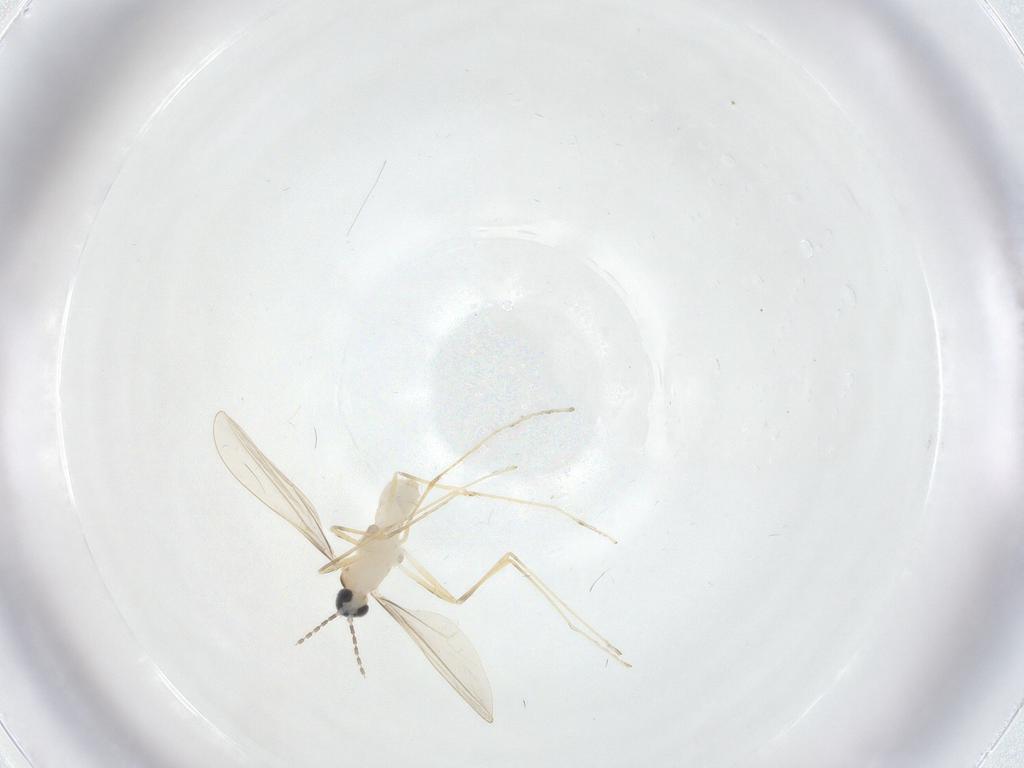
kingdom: Animalia
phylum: Arthropoda
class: Insecta
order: Diptera
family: Cecidomyiidae
